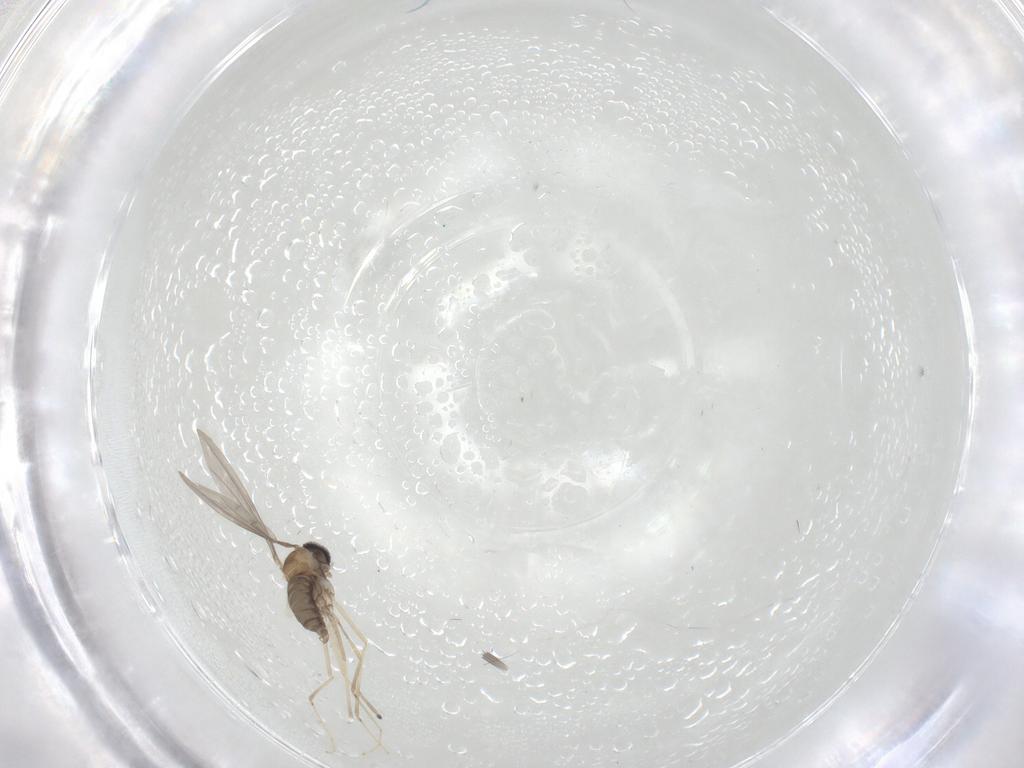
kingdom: Animalia
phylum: Arthropoda
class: Insecta
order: Diptera
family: Cecidomyiidae
